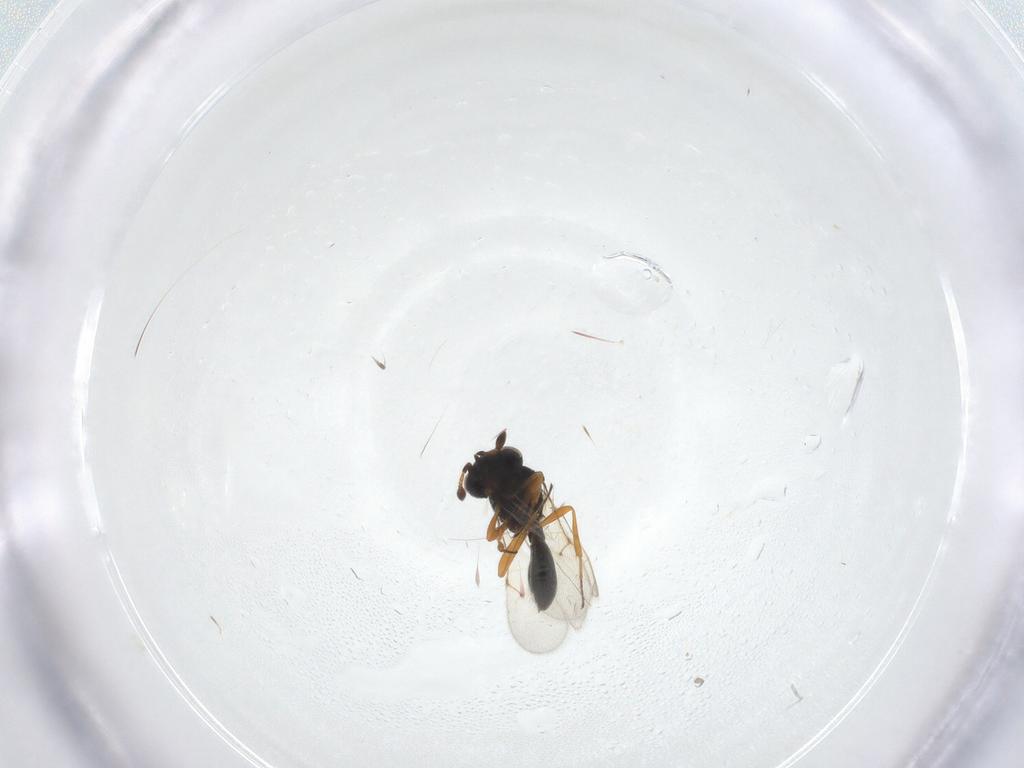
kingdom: Animalia
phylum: Arthropoda
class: Insecta
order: Hymenoptera
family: Scelionidae
